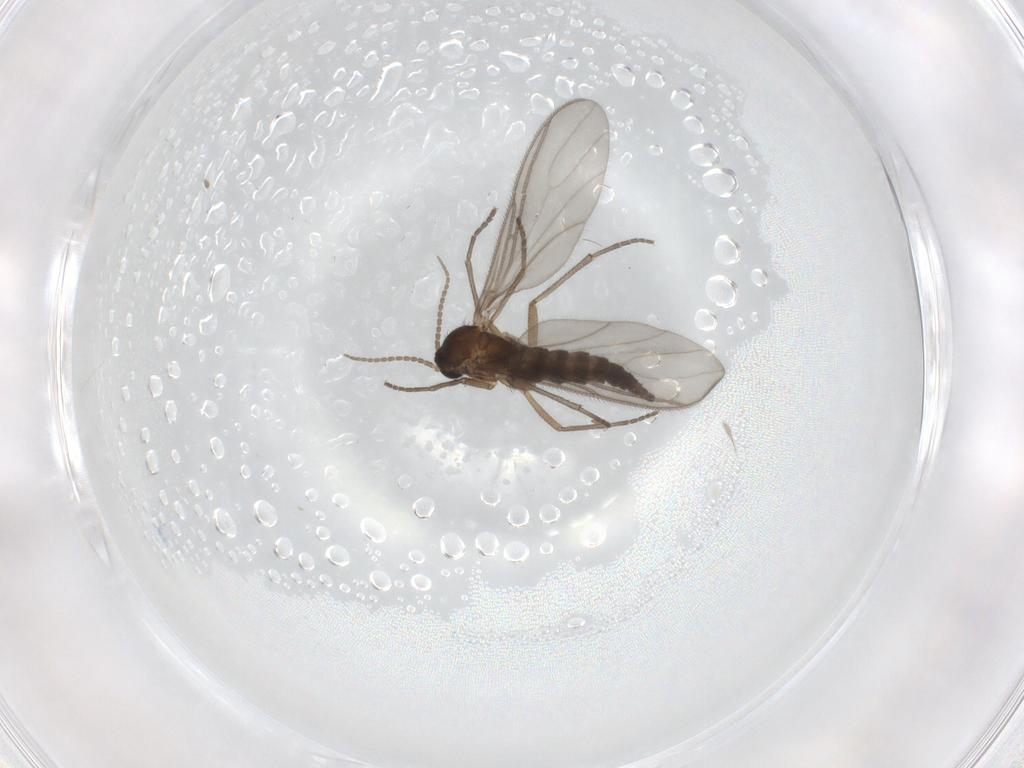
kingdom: Animalia
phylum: Arthropoda
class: Insecta
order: Diptera
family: Sciaridae
